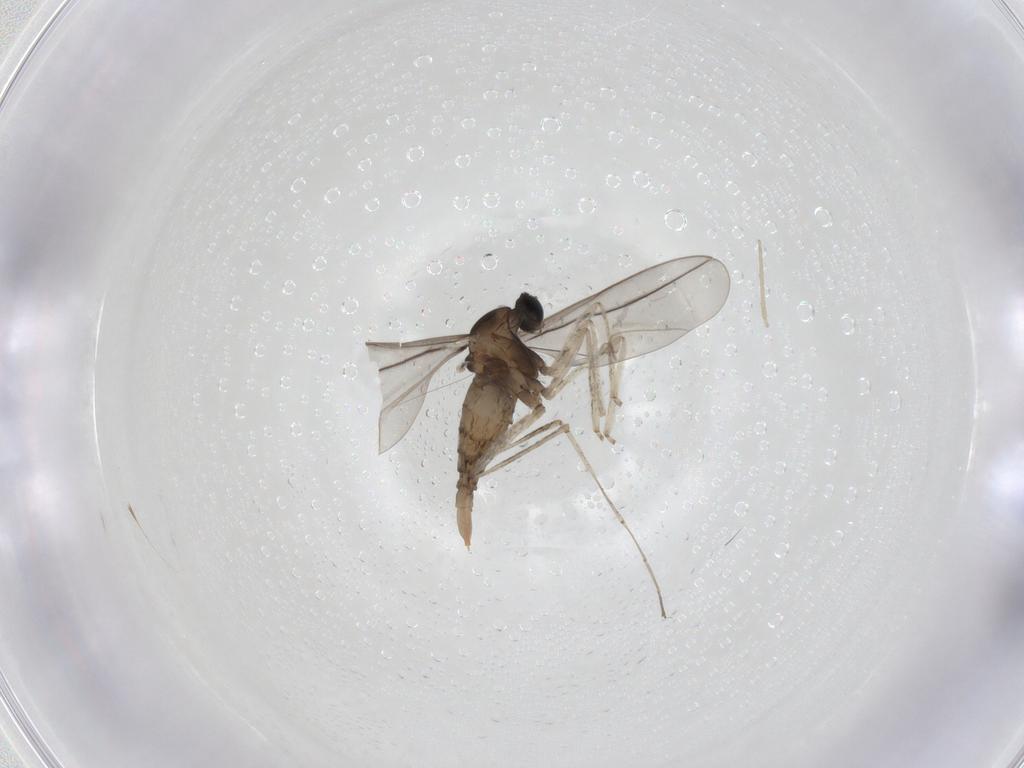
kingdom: Animalia
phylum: Arthropoda
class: Insecta
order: Diptera
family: Cecidomyiidae
